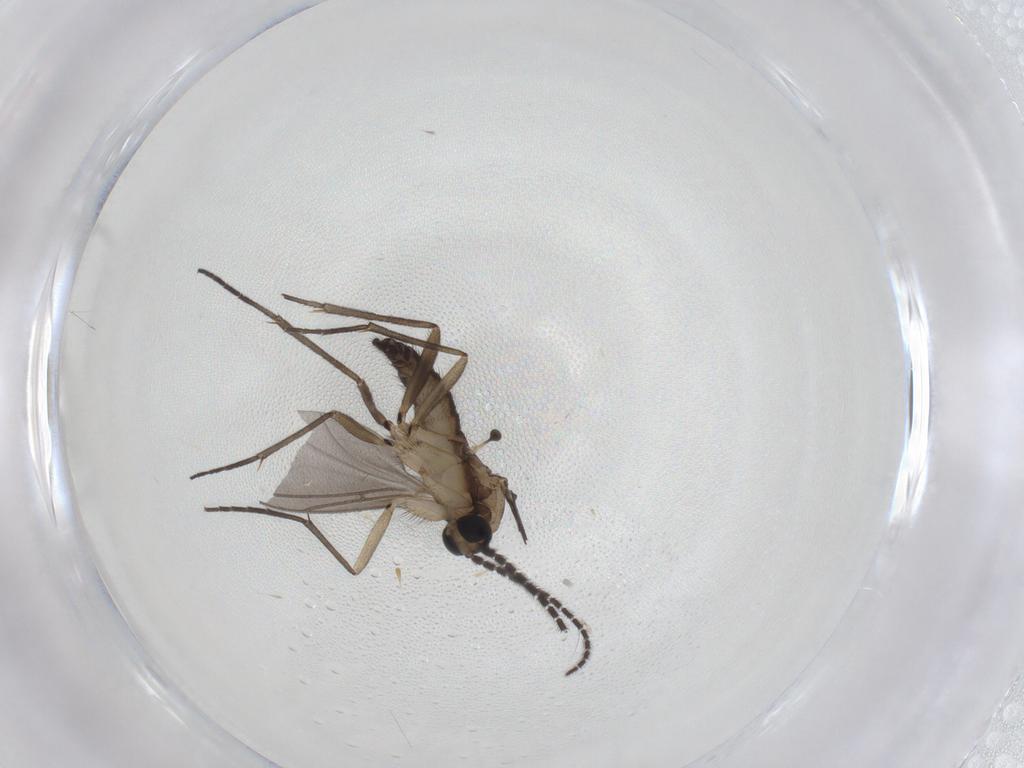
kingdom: Animalia
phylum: Arthropoda
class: Insecta
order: Diptera
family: Sciaridae
